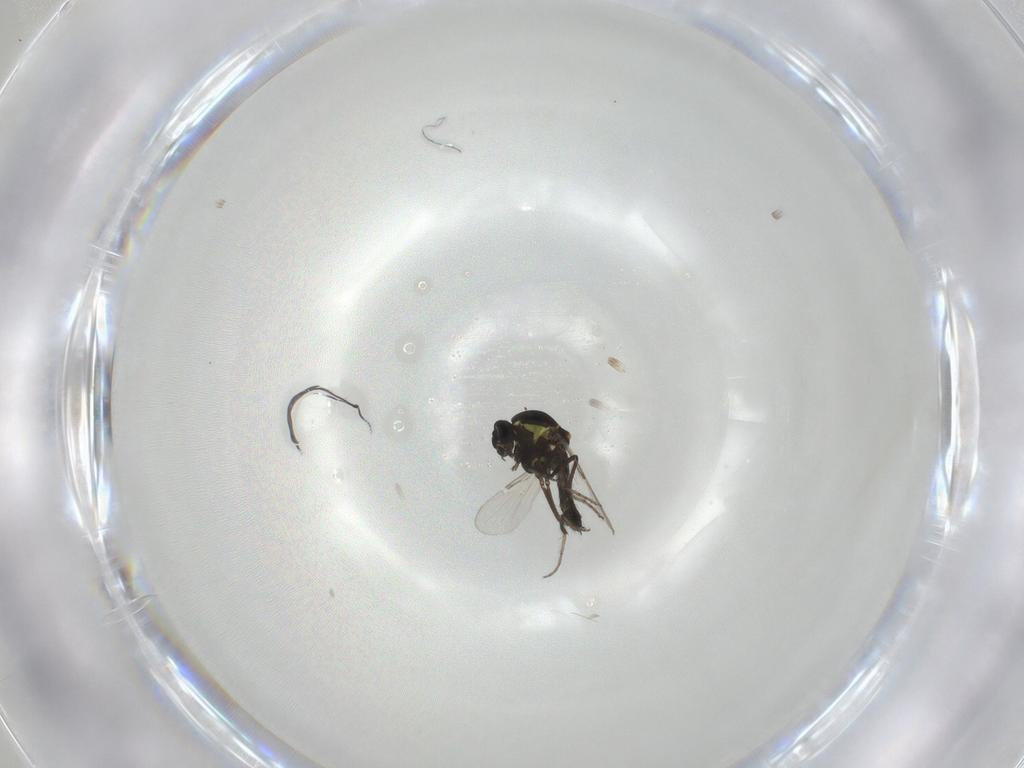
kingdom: Animalia
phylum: Arthropoda
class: Insecta
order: Diptera
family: Ceratopogonidae
